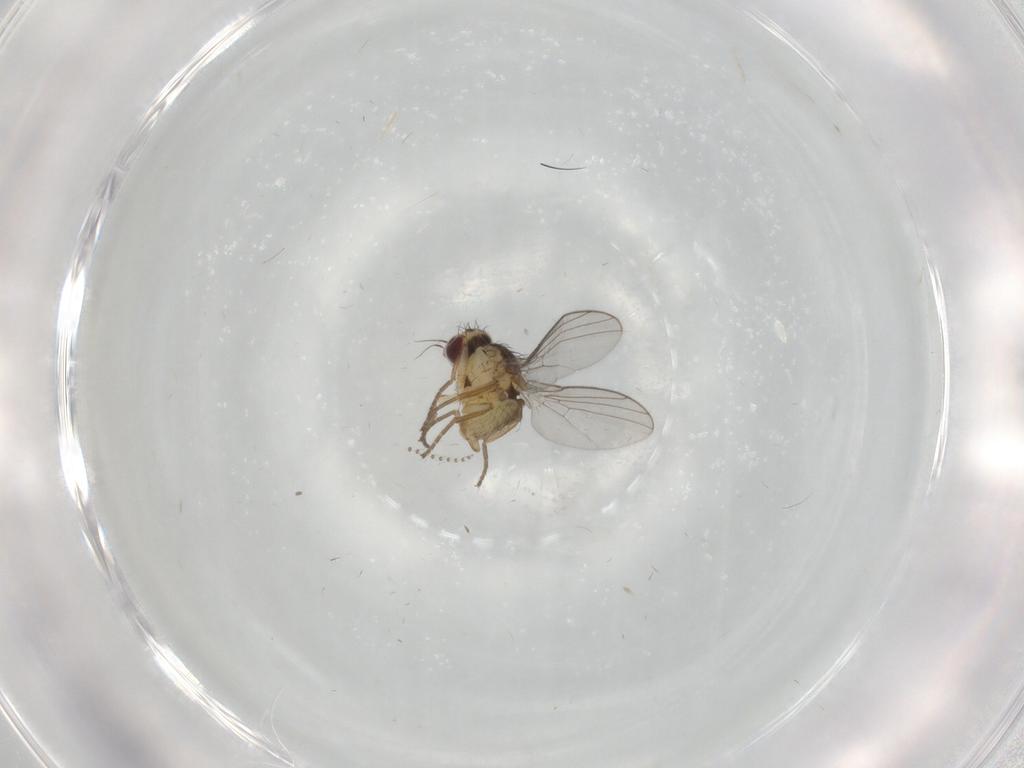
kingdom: Animalia
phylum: Arthropoda
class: Insecta
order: Diptera
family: Agromyzidae
